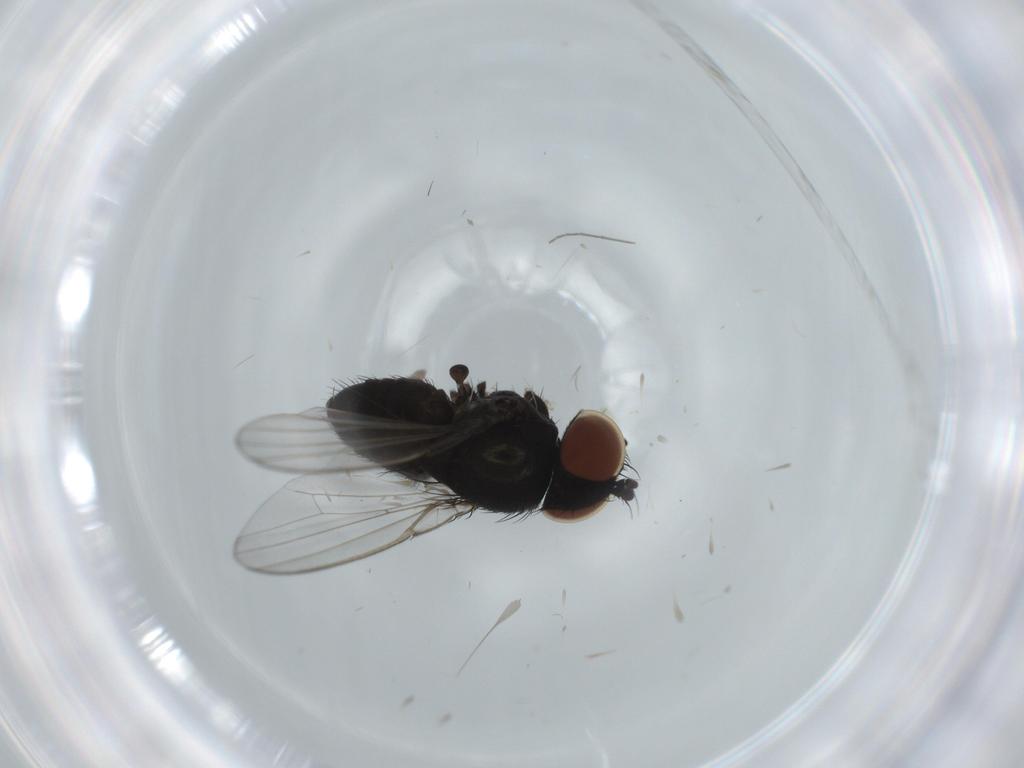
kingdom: Animalia
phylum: Arthropoda
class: Insecta
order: Diptera
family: Milichiidae
